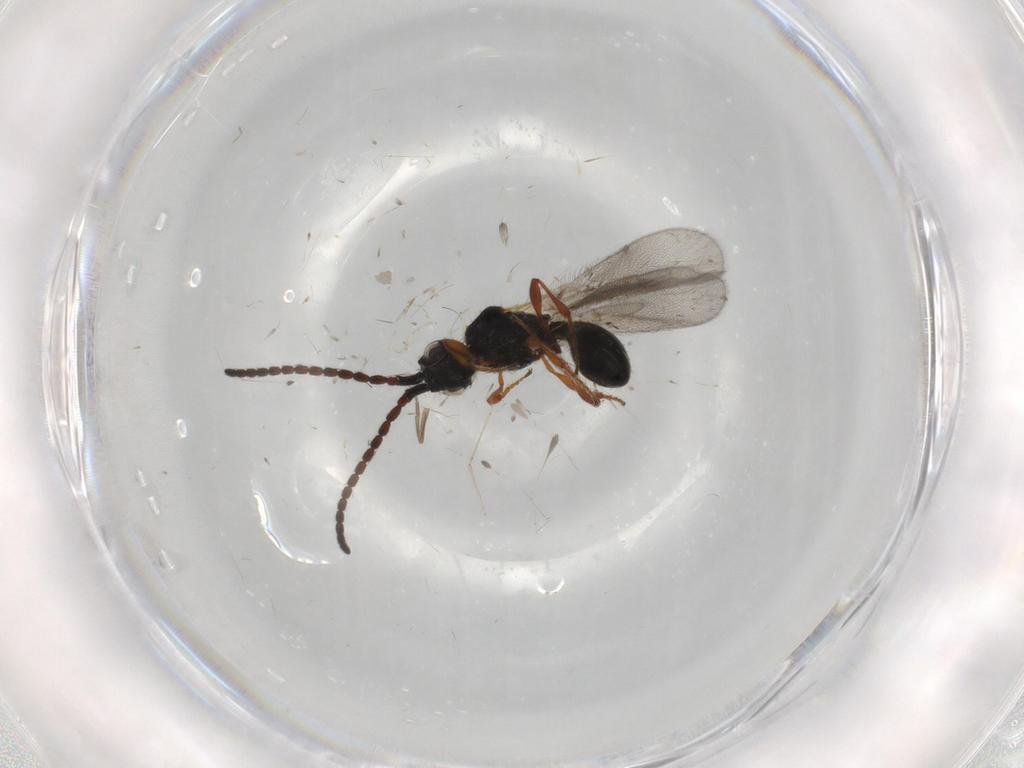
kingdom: Animalia
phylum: Arthropoda
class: Insecta
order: Hymenoptera
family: Diapriidae
